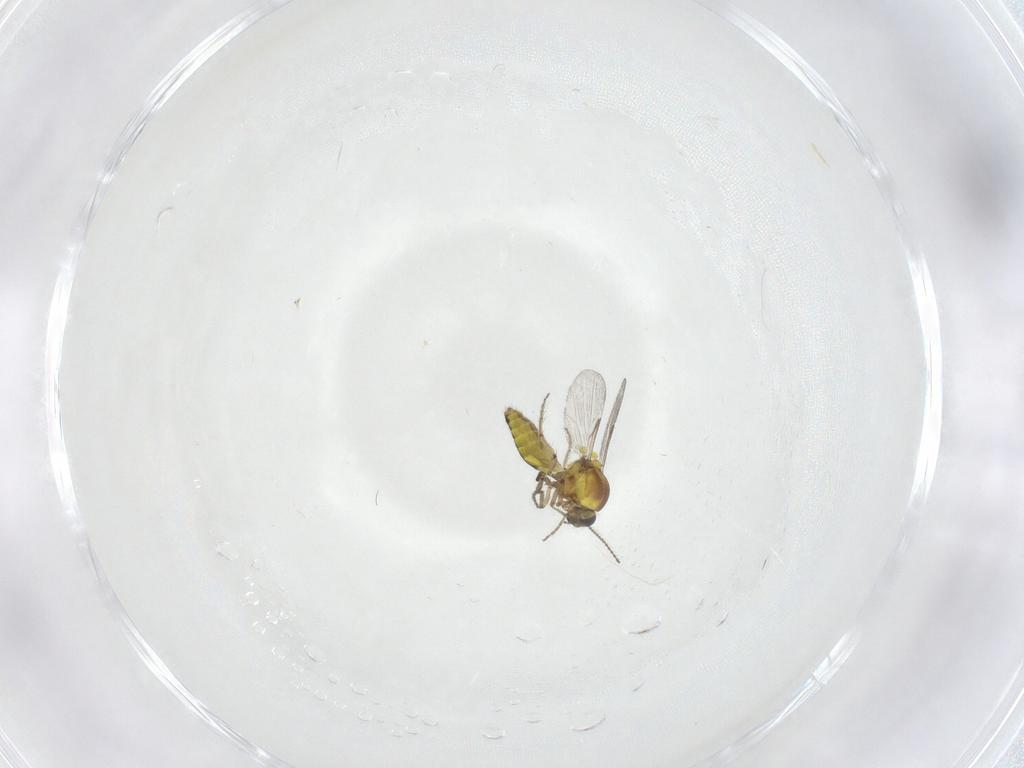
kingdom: Animalia
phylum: Arthropoda
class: Insecta
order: Diptera
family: Ceratopogonidae
